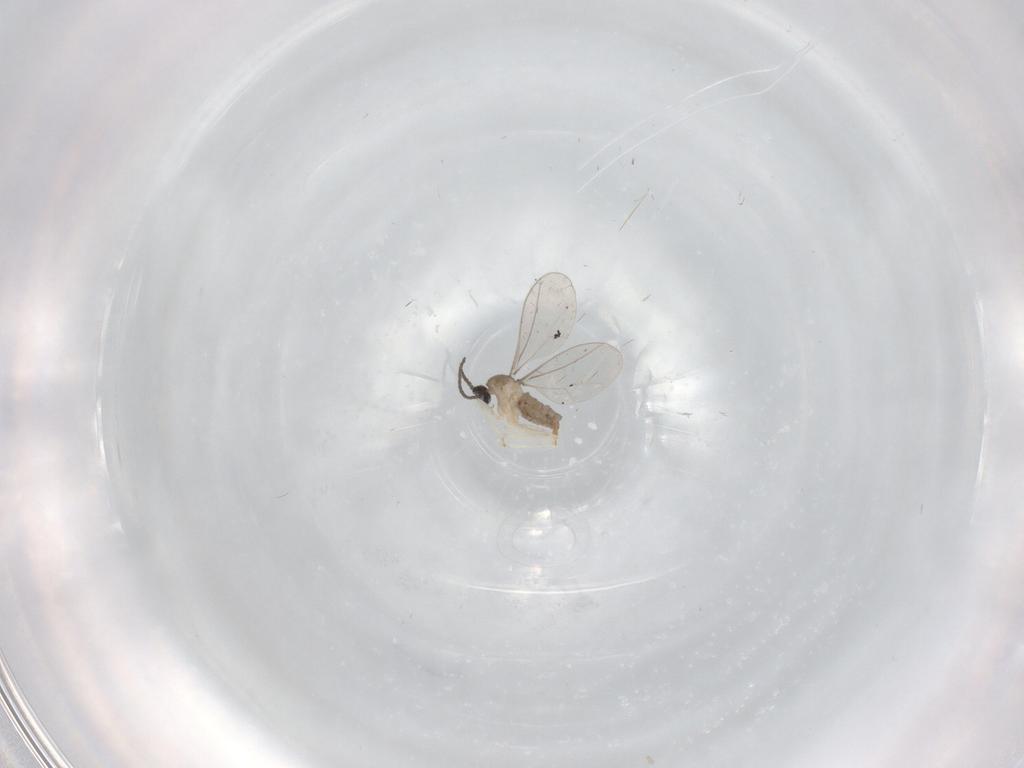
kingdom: Animalia
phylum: Arthropoda
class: Insecta
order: Diptera
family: Cecidomyiidae
